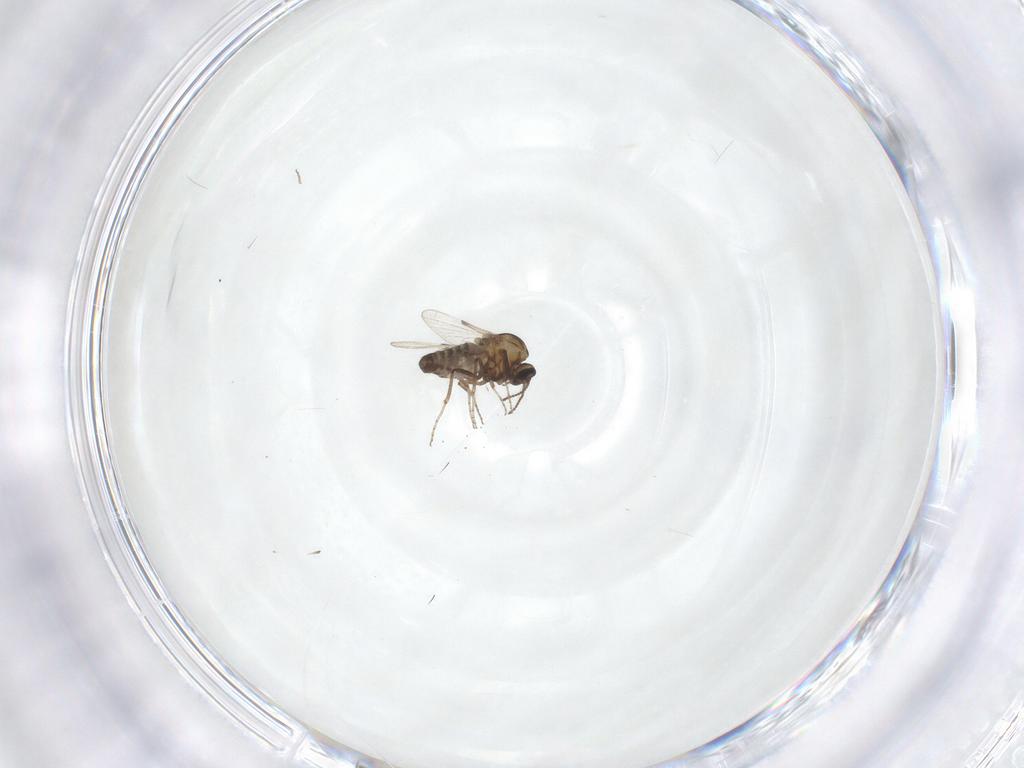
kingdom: Animalia
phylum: Arthropoda
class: Insecta
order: Diptera
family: Ceratopogonidae
